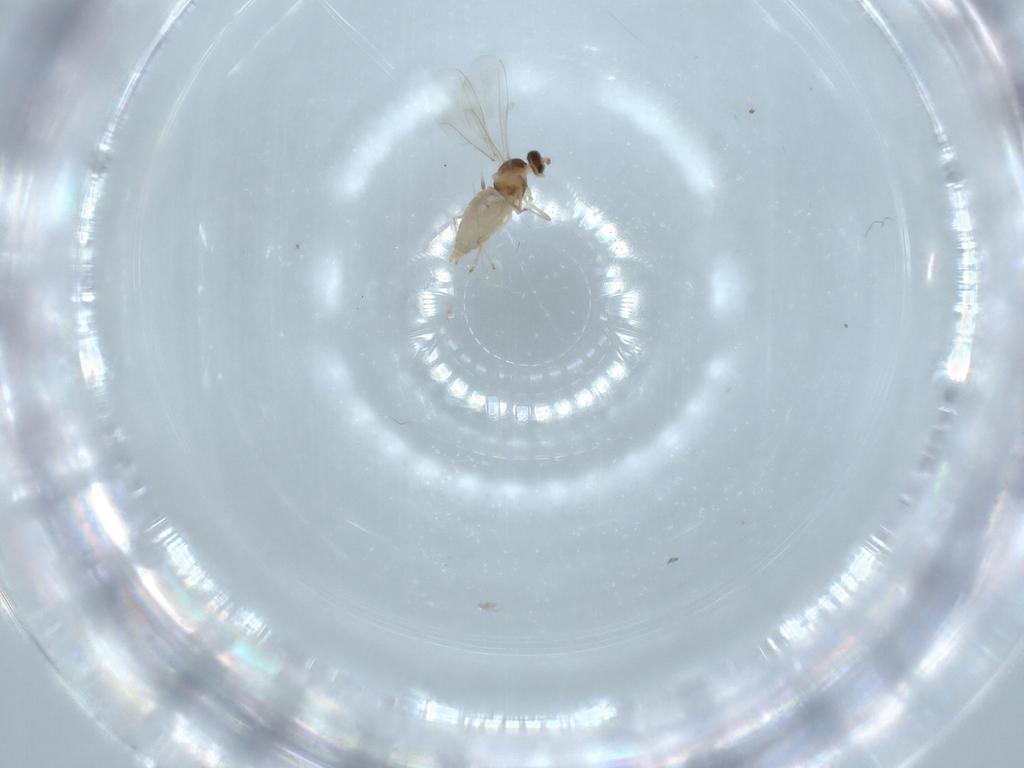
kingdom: Animalia
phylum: Arthropoda
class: Insecta
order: Diptera
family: Cecidomyiidae
